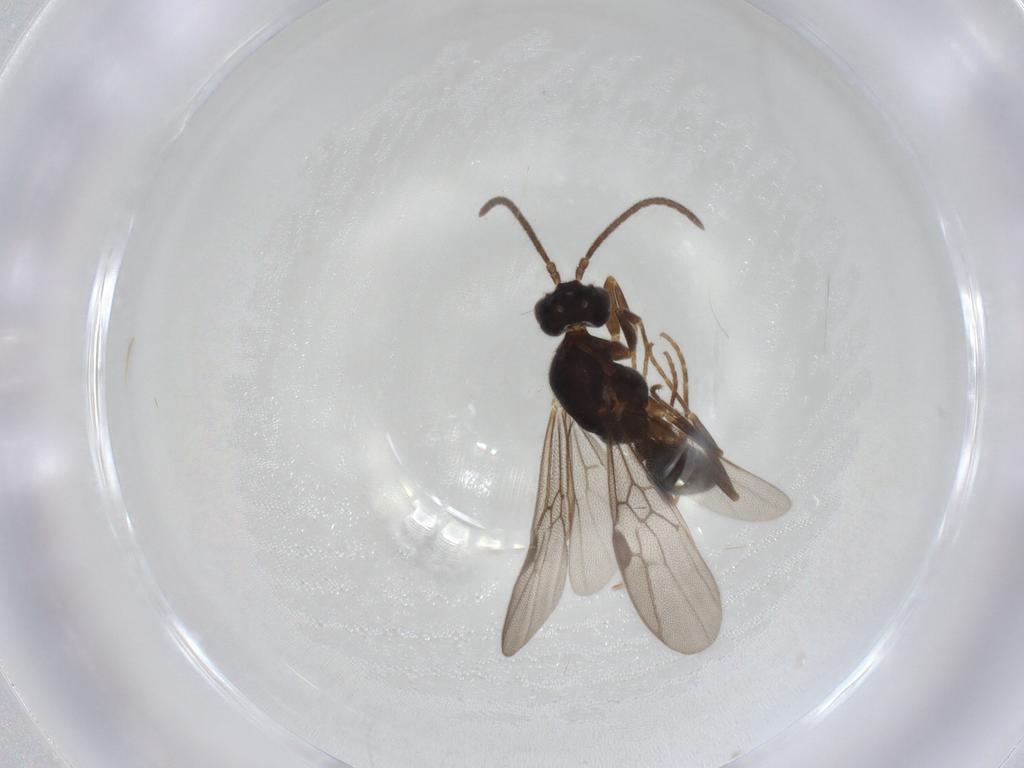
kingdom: Animalia
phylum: Arthropoda
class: Insecta
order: Hymenoptera
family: Formicidae
